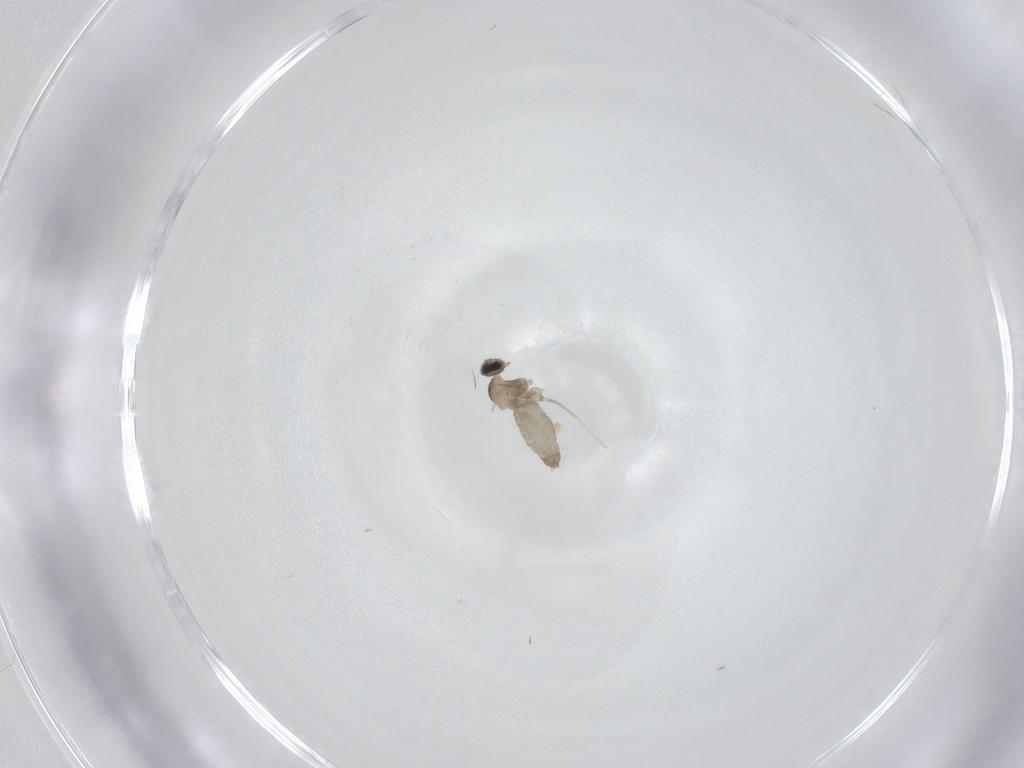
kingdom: Animalia
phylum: Arthropoda
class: Insecta
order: Diptera
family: Cecidomyiidae
